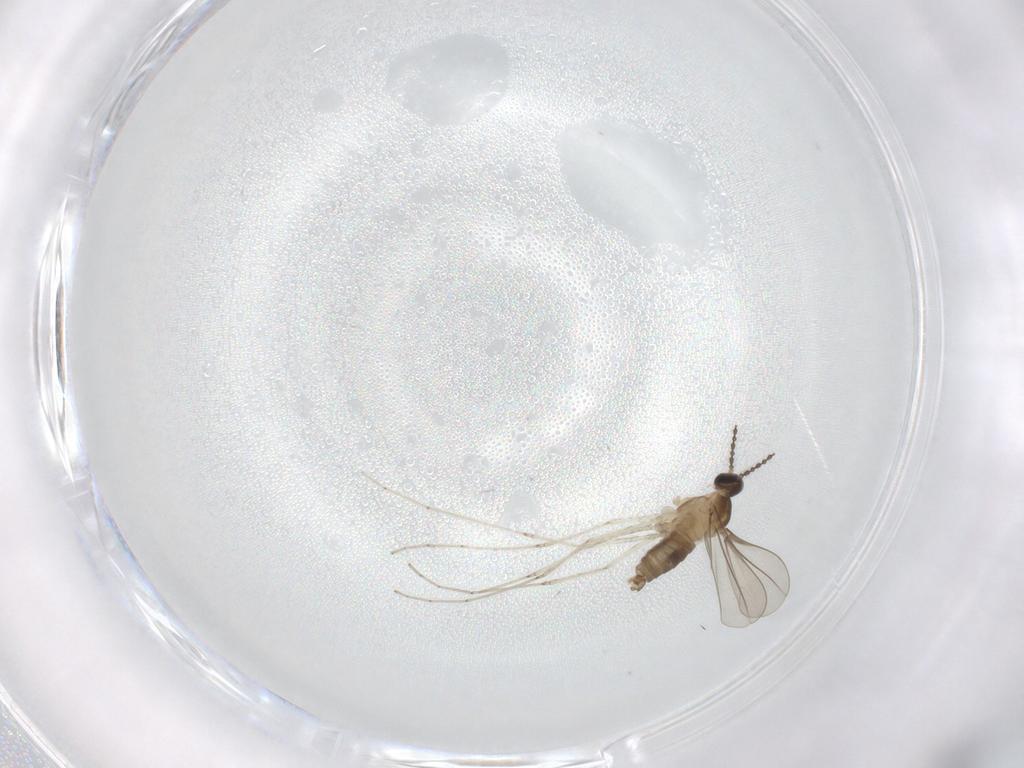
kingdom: Animalia
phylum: Arthropoda
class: Insecta
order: Diptera
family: Cecidomyiidae
